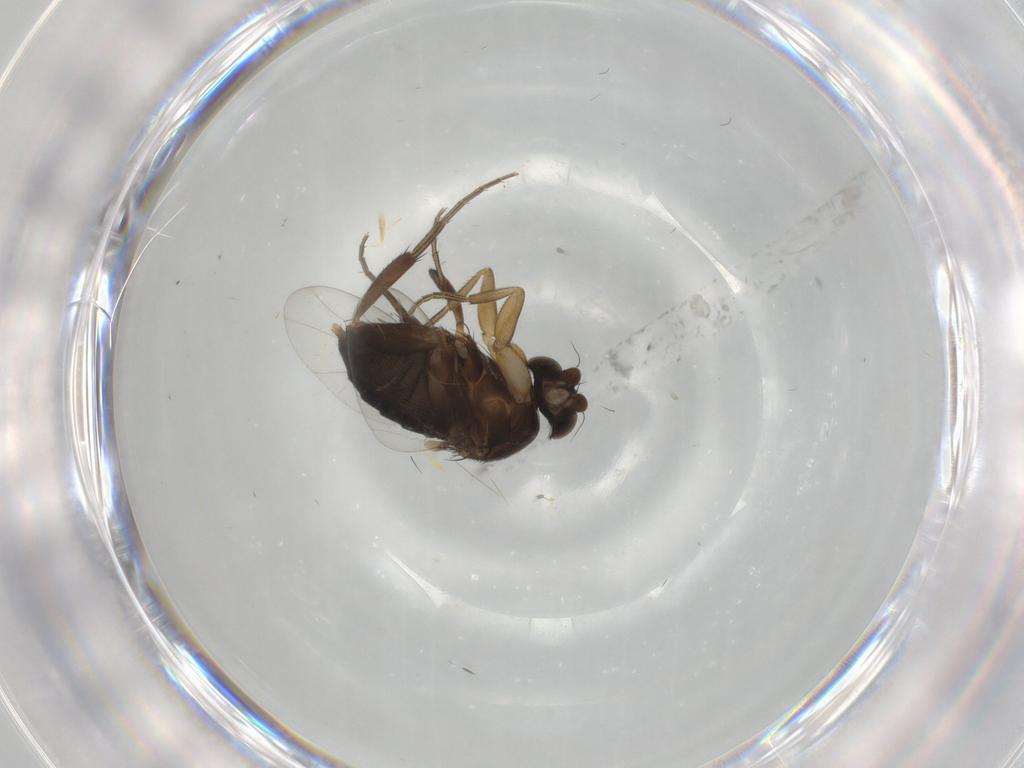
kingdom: Animalia
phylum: Arthropoda
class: Insecta
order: Diptera
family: Phoridae
